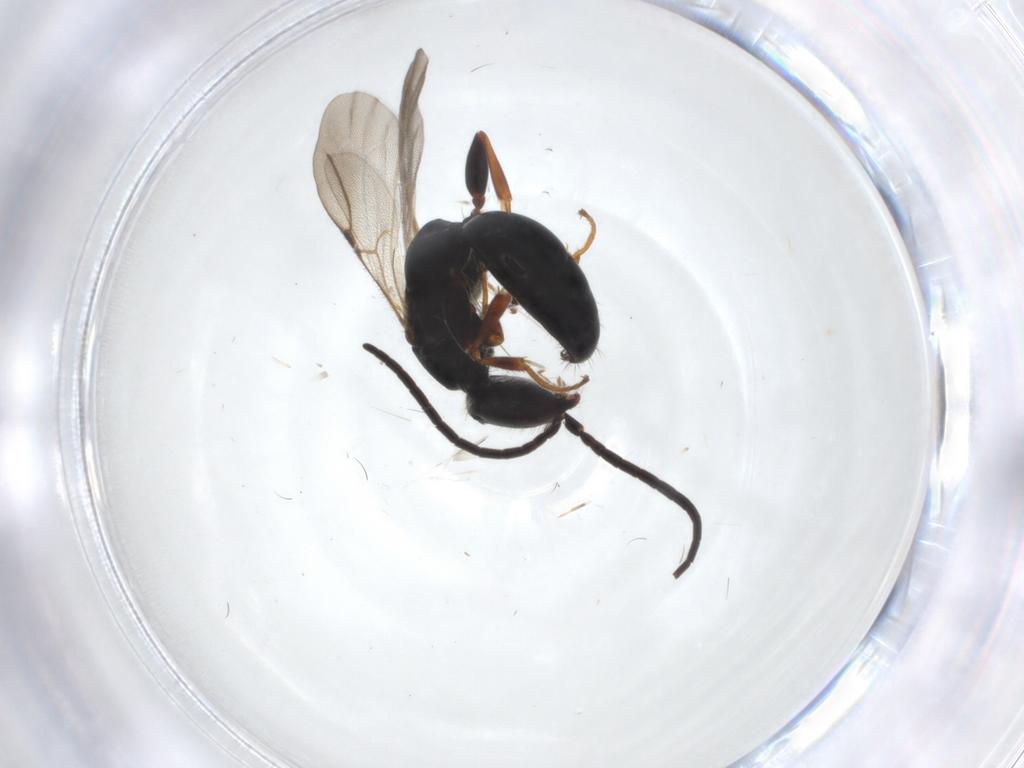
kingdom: Animalia
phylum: Arthropoda
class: Insecta
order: Hymenoptera
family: Bethylidae
